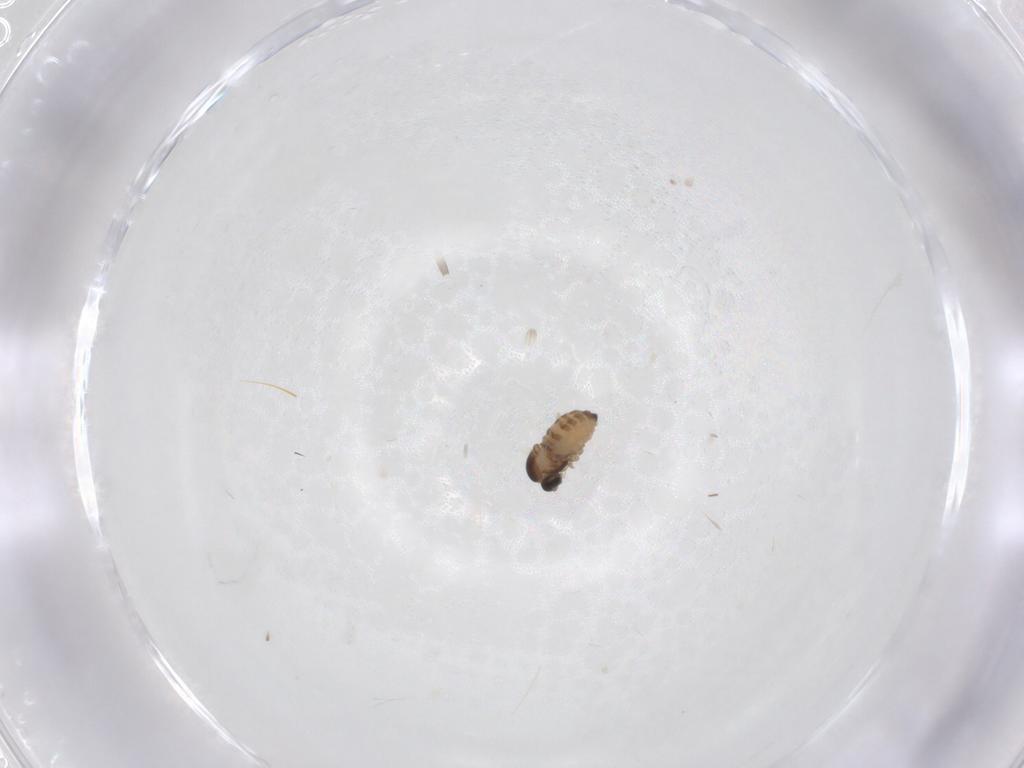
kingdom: Animalia
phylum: Arthropoda
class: Insecta
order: Diptera
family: Cecidomyiidae
